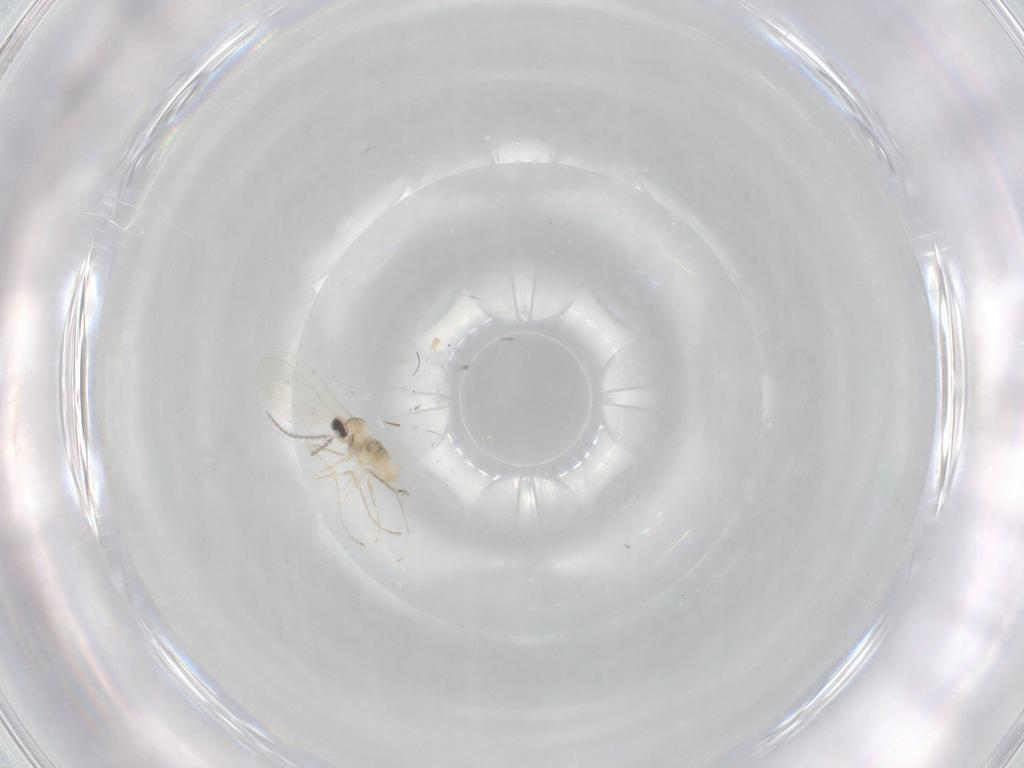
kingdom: Animalia
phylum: Arthropoda
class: Insecta
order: Diptera
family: Cecidomyiidae
